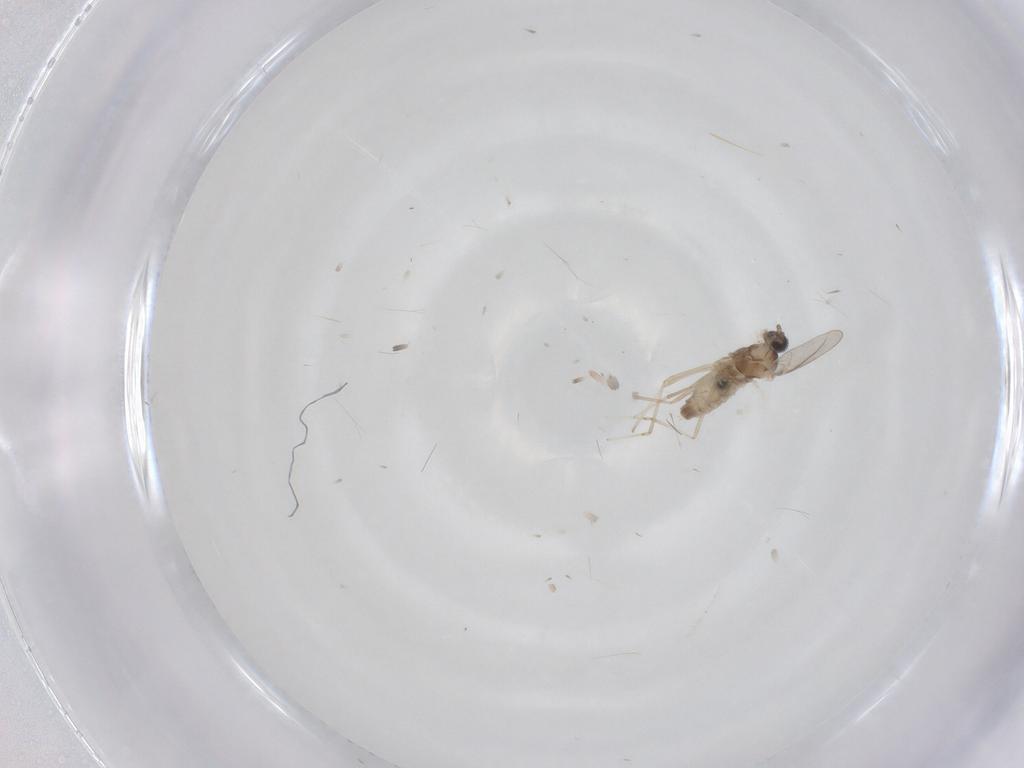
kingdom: Animalia
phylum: Arthropoda
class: Insecta
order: Diptera
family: Cecidomyiidae
